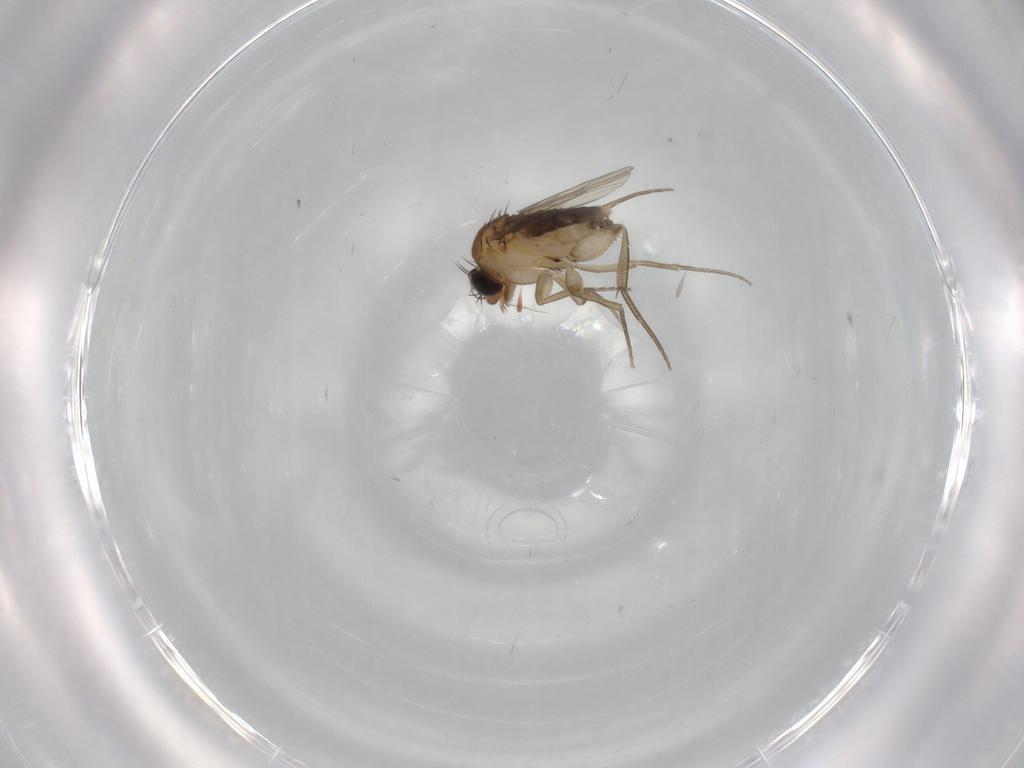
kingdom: Animalia
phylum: Arthropoda
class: Insecta
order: Diptera
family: Phoridae
